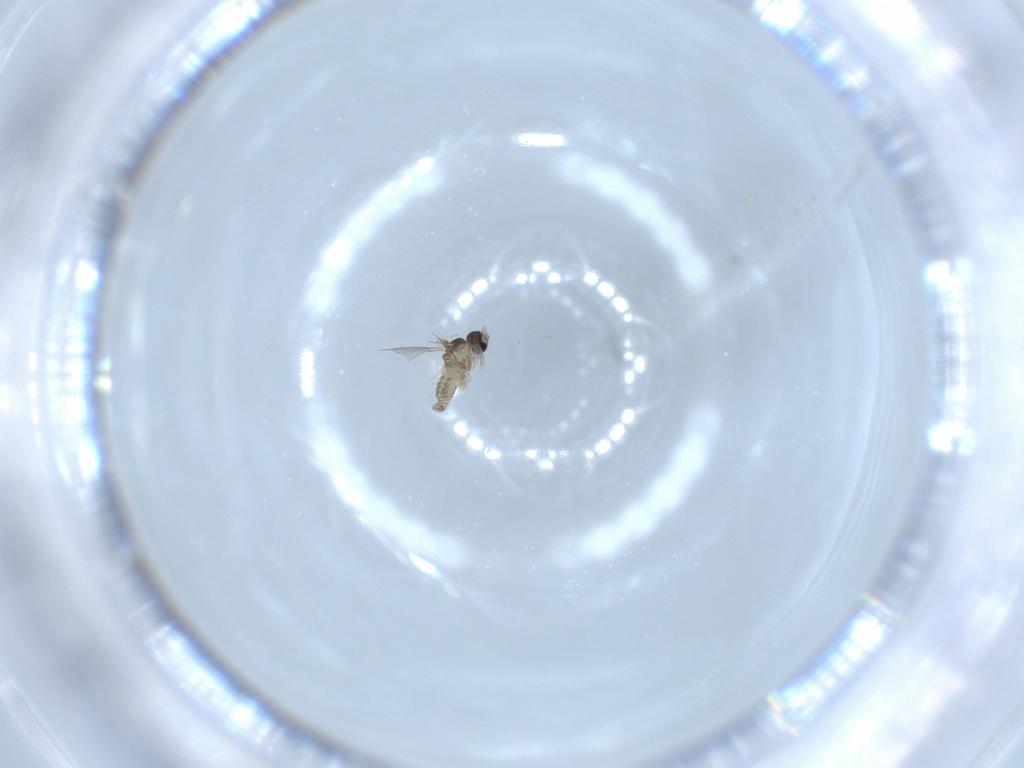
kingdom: Animalia
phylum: Arthropoda
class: Insecta
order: Diptera
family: Cecidomyiidae
